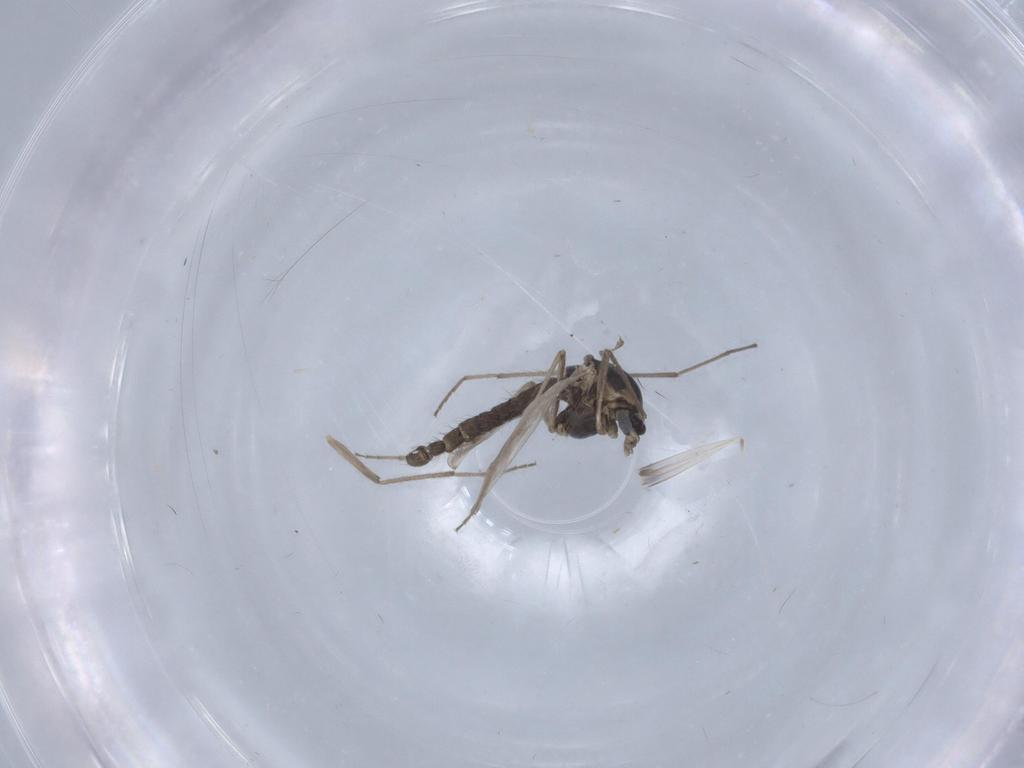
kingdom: Animalia
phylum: Arthropoda
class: Insecta
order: Diptera
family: Chironomidae
